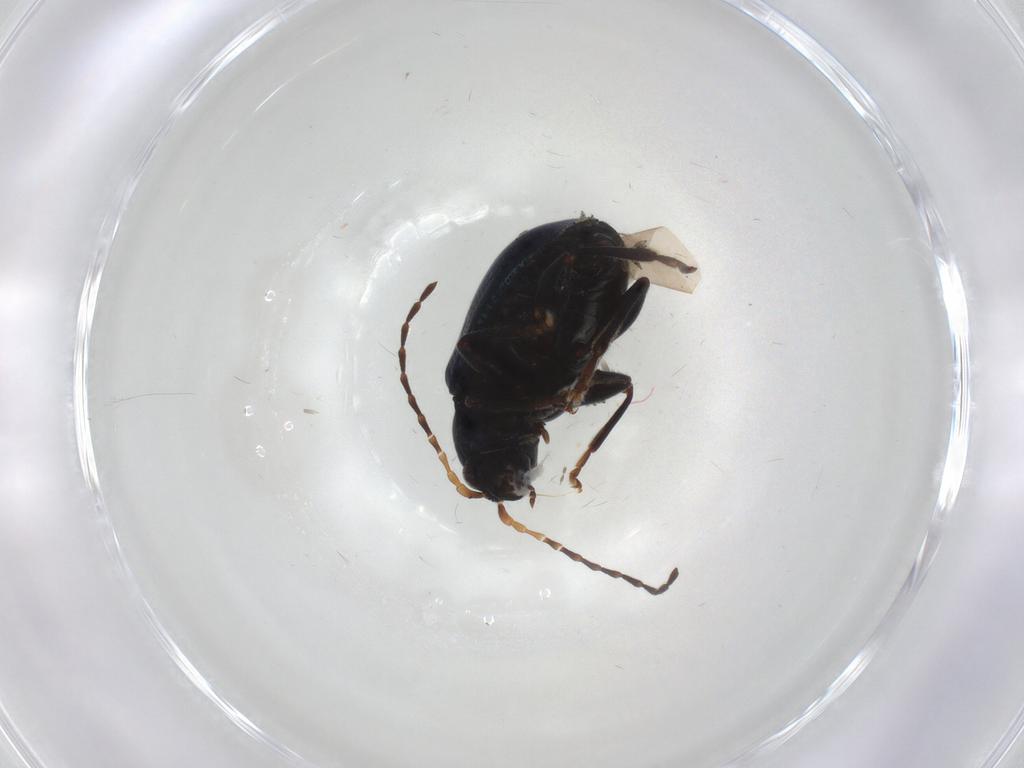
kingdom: Animalia
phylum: Arthropoda
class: Insecta
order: Coleoptera
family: Chrysomelidae
